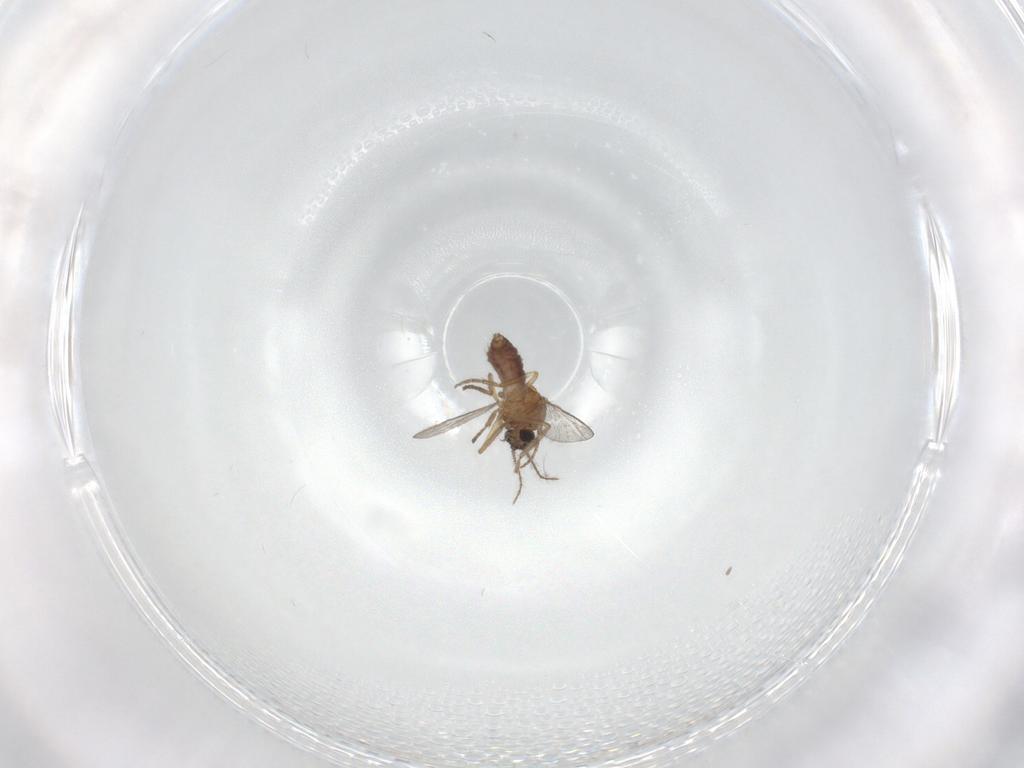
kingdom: Animalia
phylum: Arthropoda
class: Insecta
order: Diptera
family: Chironomidae
